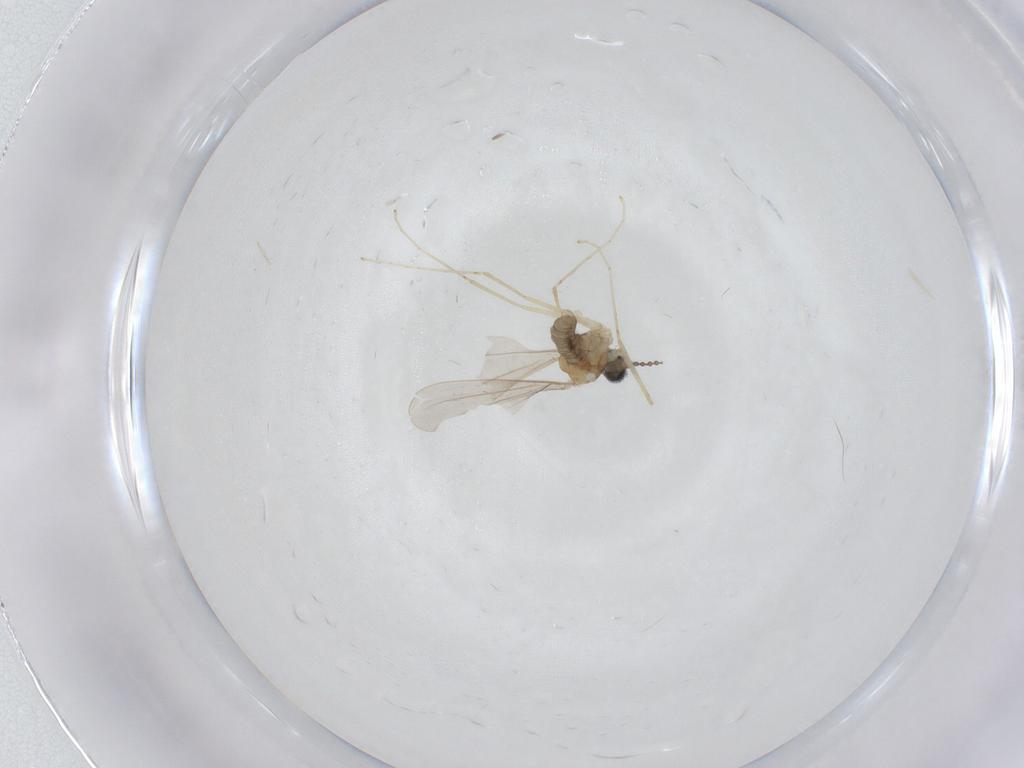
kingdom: Animalia
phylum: Arthropoda
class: Insecta
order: Diptera
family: Cecidomyiidae
